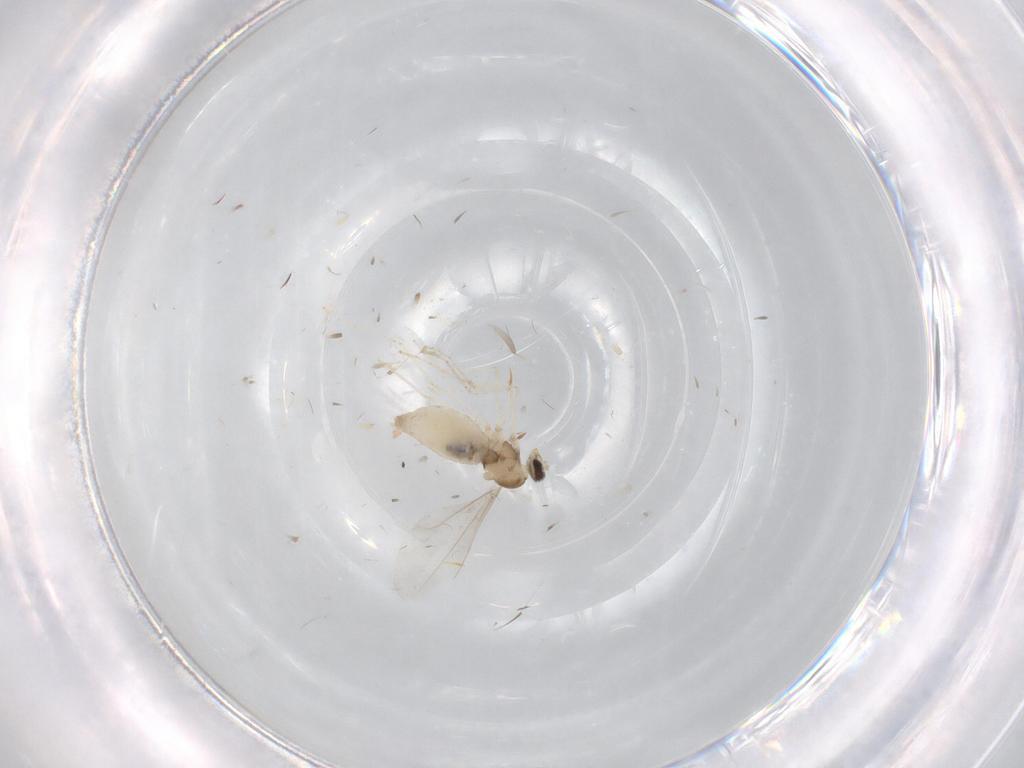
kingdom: Animalia
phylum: Arthropoda
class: Insecta
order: Diptera
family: Cecidomyiidae
